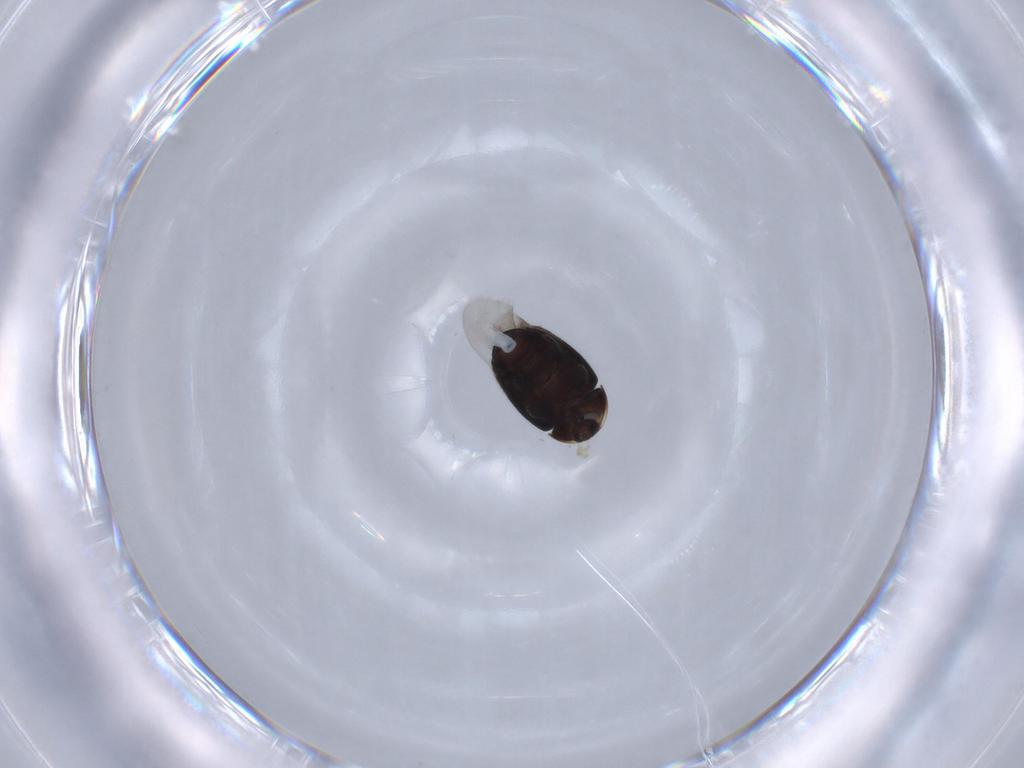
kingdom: Animalia
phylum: Arthropoda
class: Insecta
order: Coleoptera
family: Corylophidae
